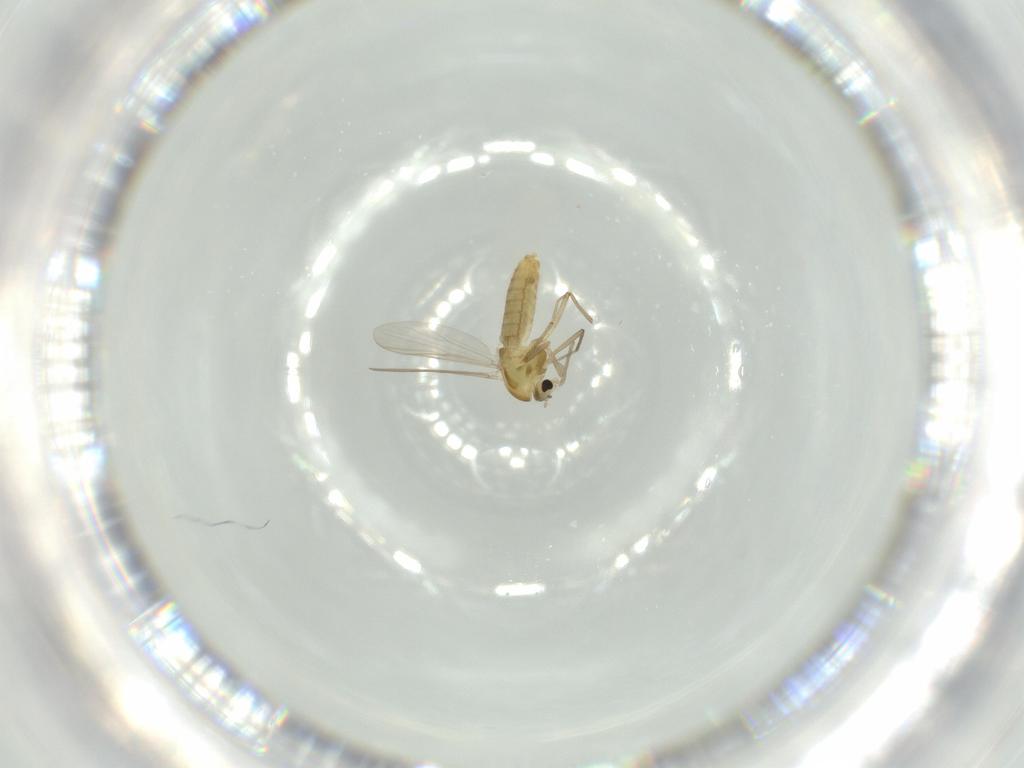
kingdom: Animalia
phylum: Arthropoda
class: Insecta
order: Diptera
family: Chironomidae
